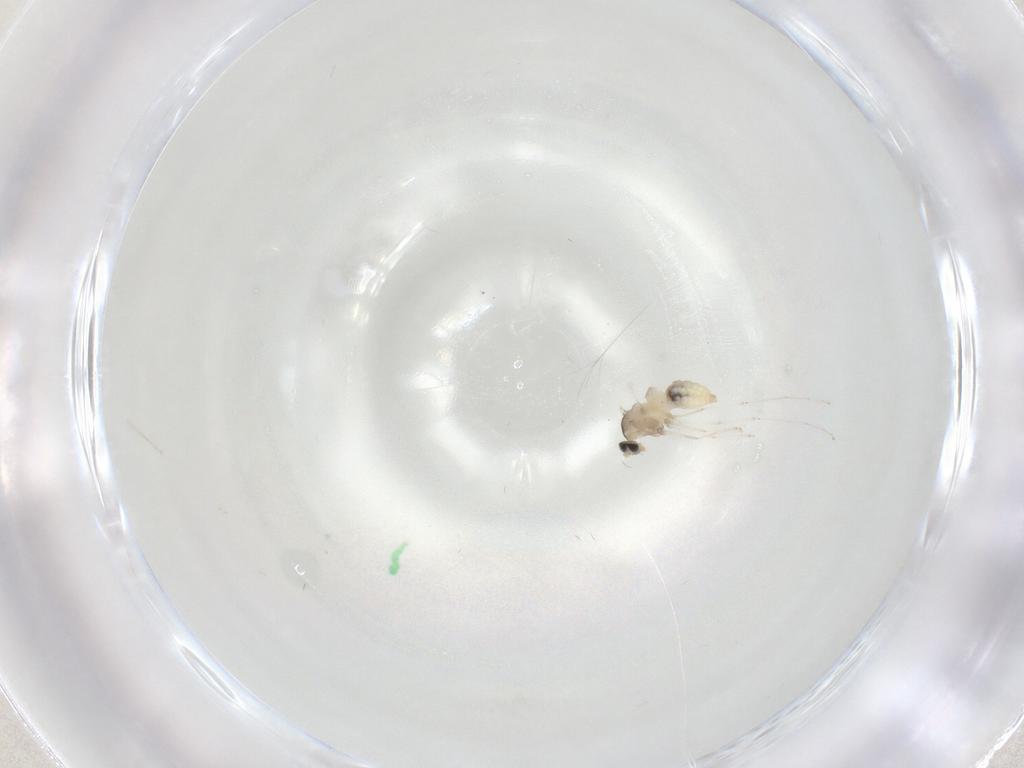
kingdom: Animalia
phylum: Arthropoda
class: Insecta
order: Diptera
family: Cecidomyiidae
